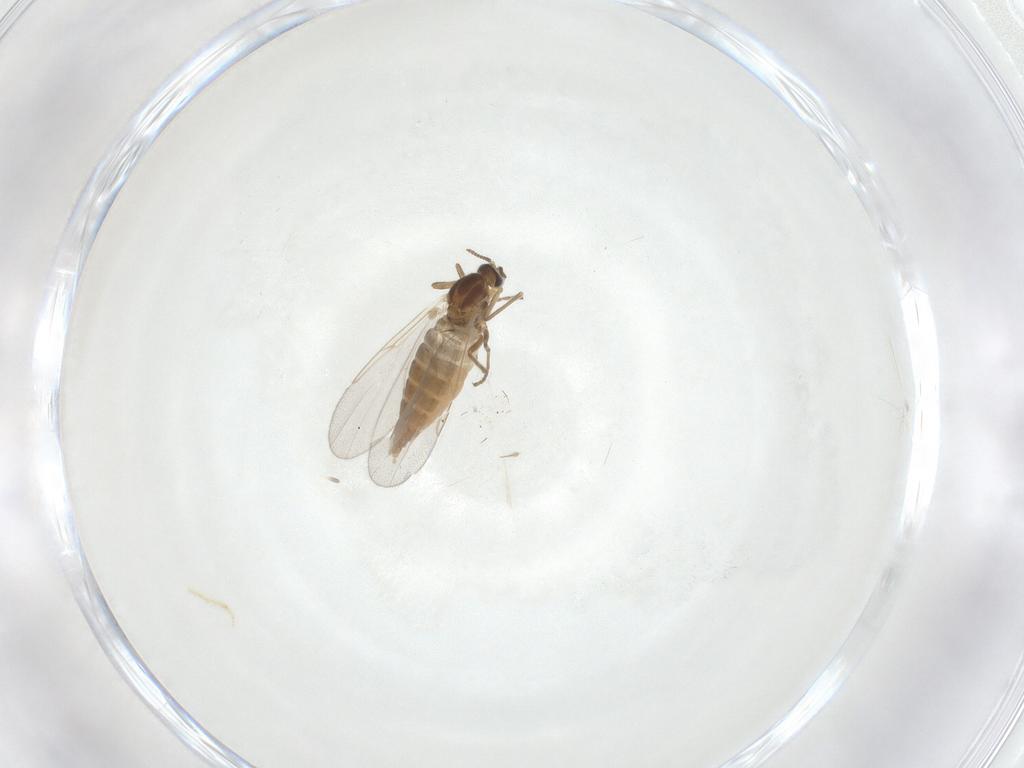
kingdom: Animalia
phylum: Arthropoda
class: Insecta
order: Diptera
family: Cecidomyiidae
